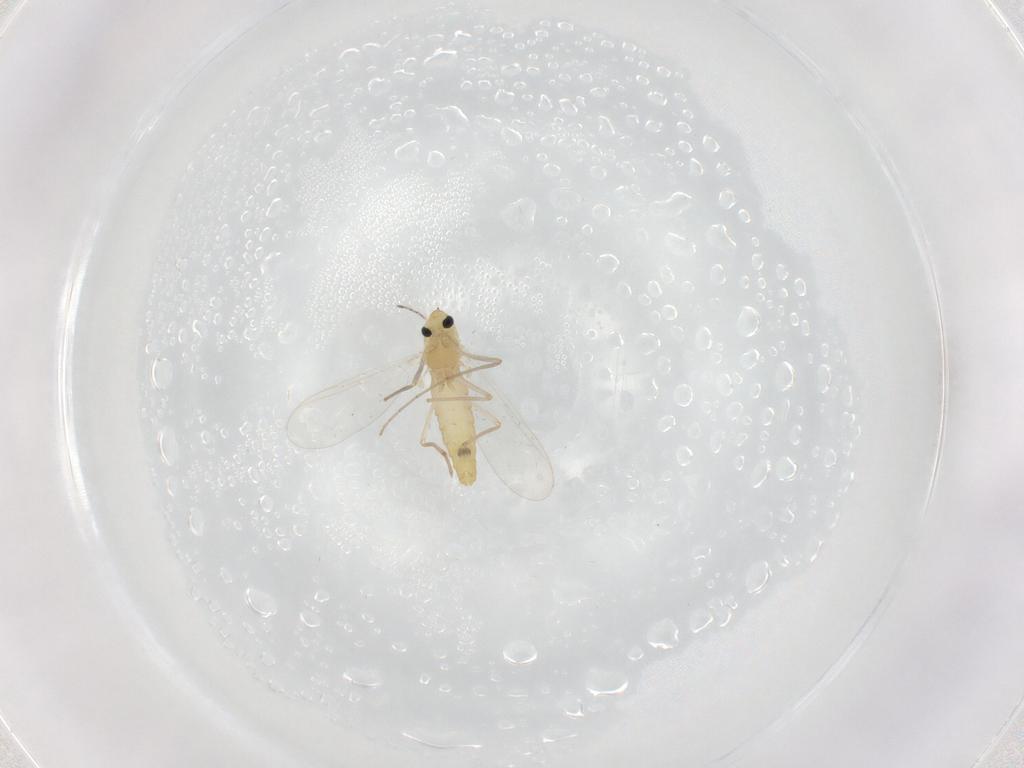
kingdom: Animalia
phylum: Arthropoda
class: Insecta
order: Diptera
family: Chironomidae
